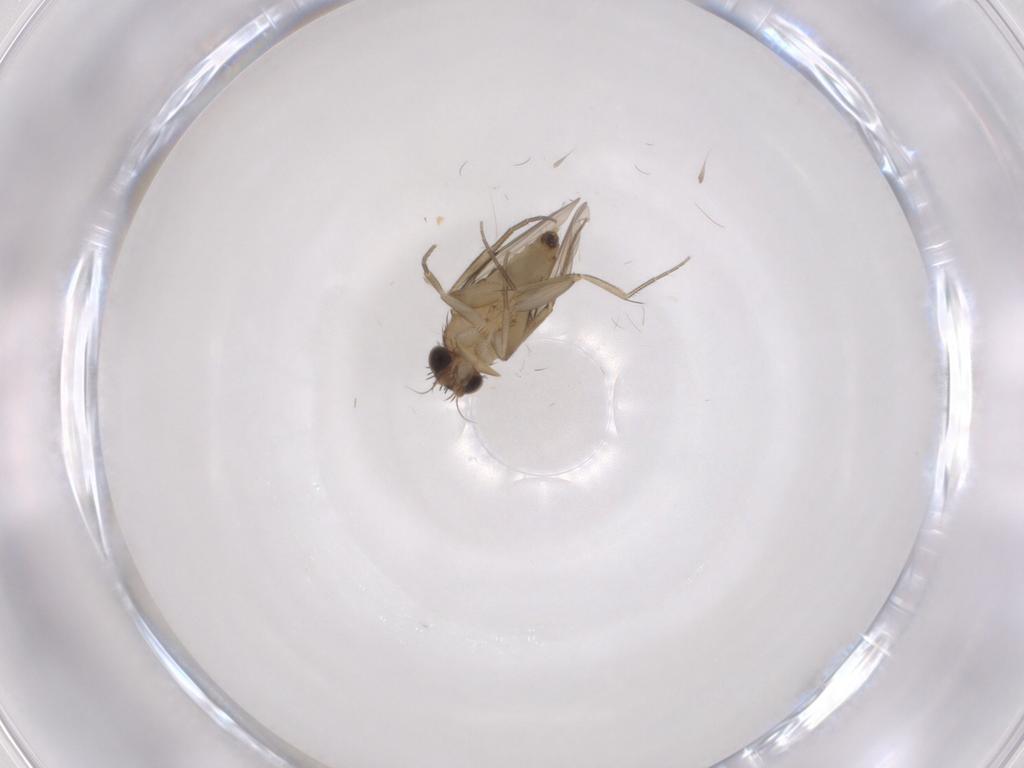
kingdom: Animalia
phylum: Arthropoda
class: Insecta
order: Diptera
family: Phoridae
